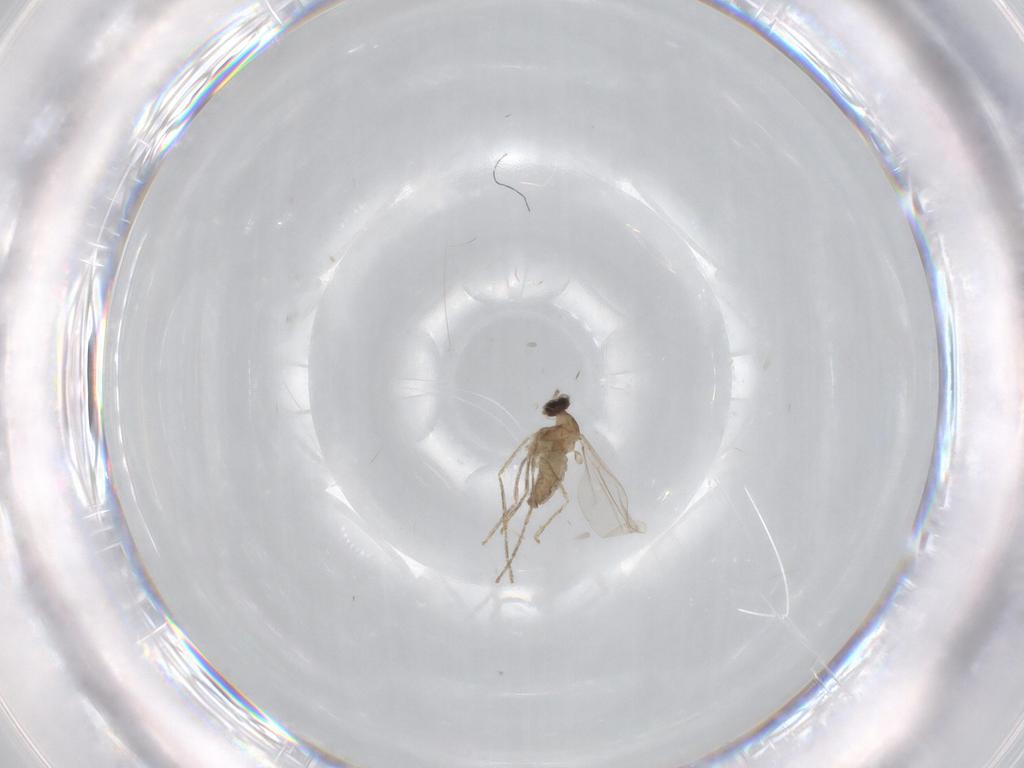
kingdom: Animalia
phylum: Arthropoda
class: Insecta
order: Diptera
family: Cecidomyiidae
